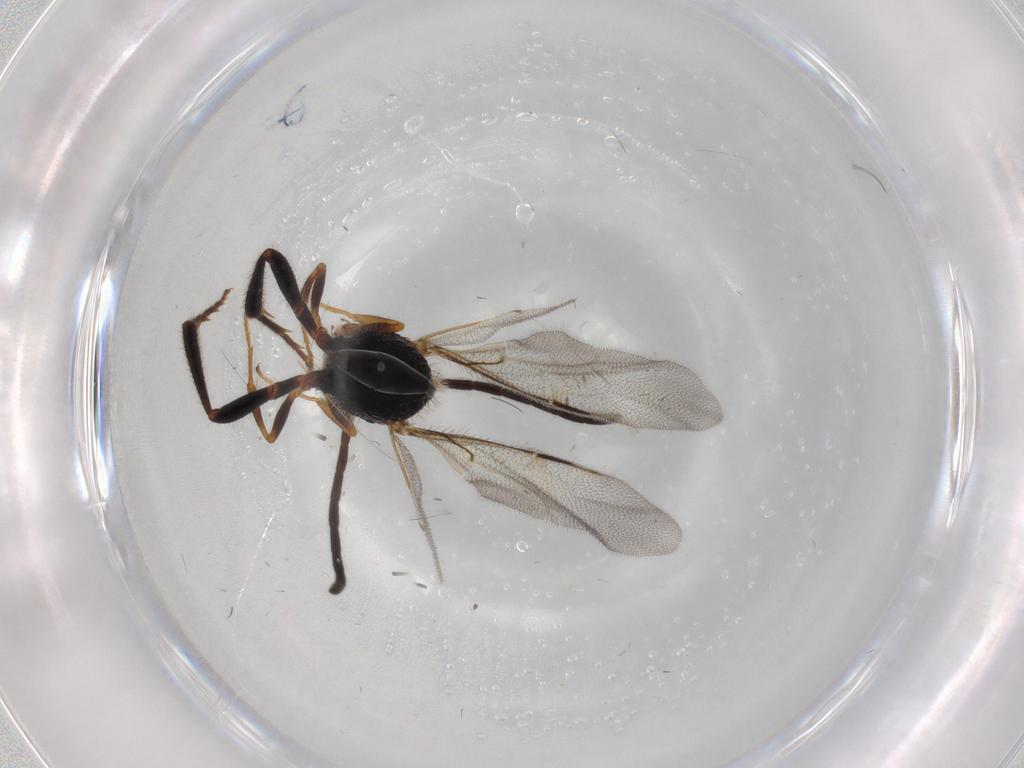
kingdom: Animalia
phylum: Arthropoda
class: Insecta
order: Hymenoptera
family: Evaniidae
